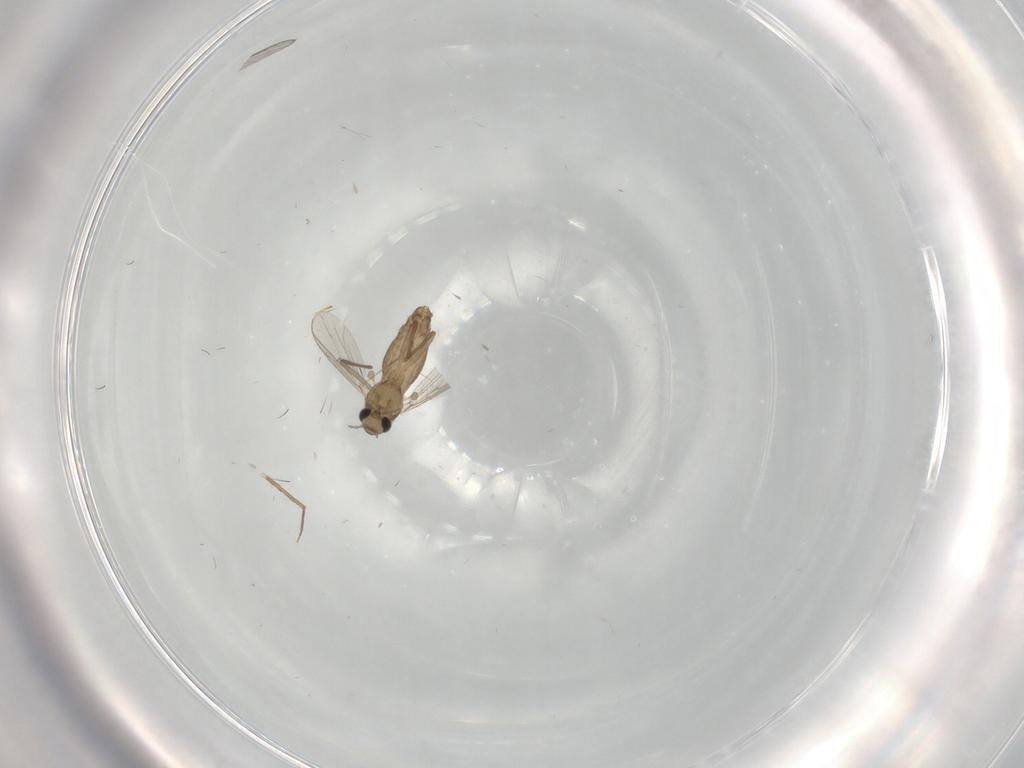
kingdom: Animalia
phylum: Arthropoda
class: Insecta
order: Diptera
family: Chironomidae
